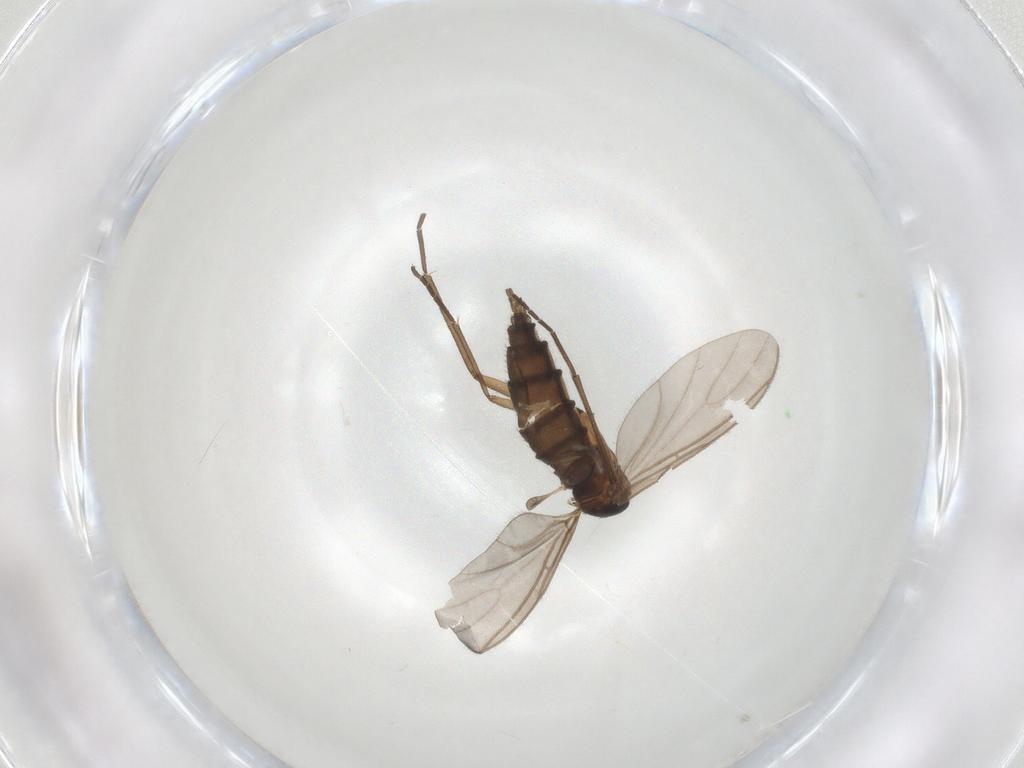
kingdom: Animalia
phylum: Arthropoda
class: Insecta
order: Diptera
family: Sciaridae
